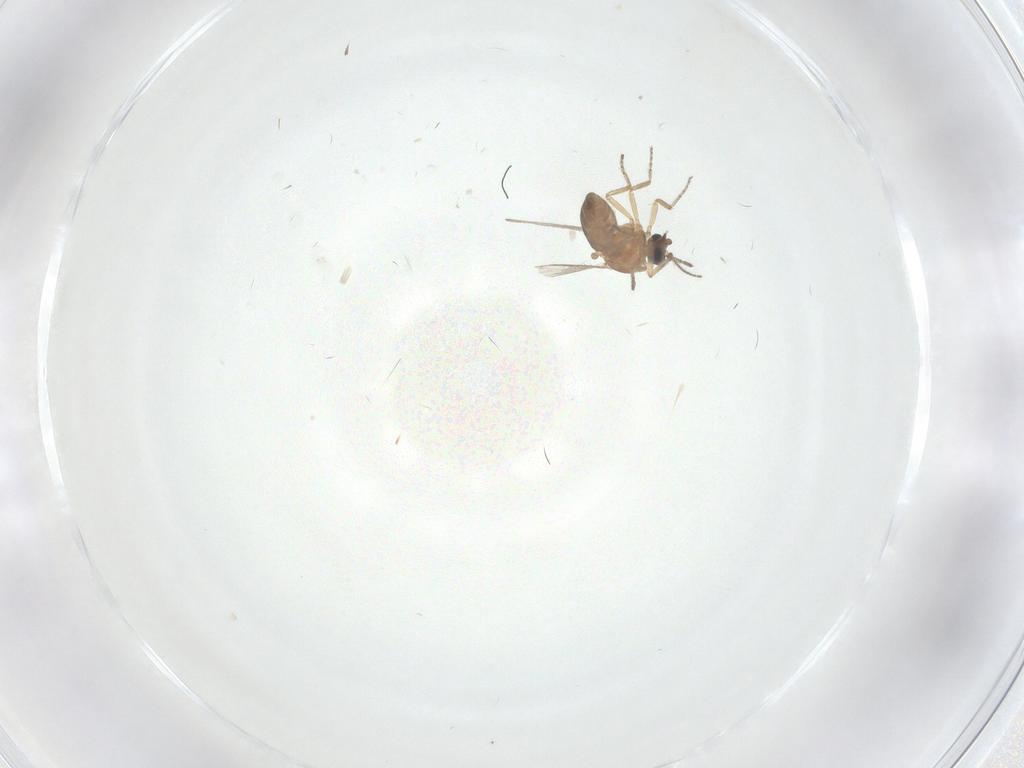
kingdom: Animalia
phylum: Arthropoda
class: Insecta
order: Diptera
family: Ceratopogonidae
